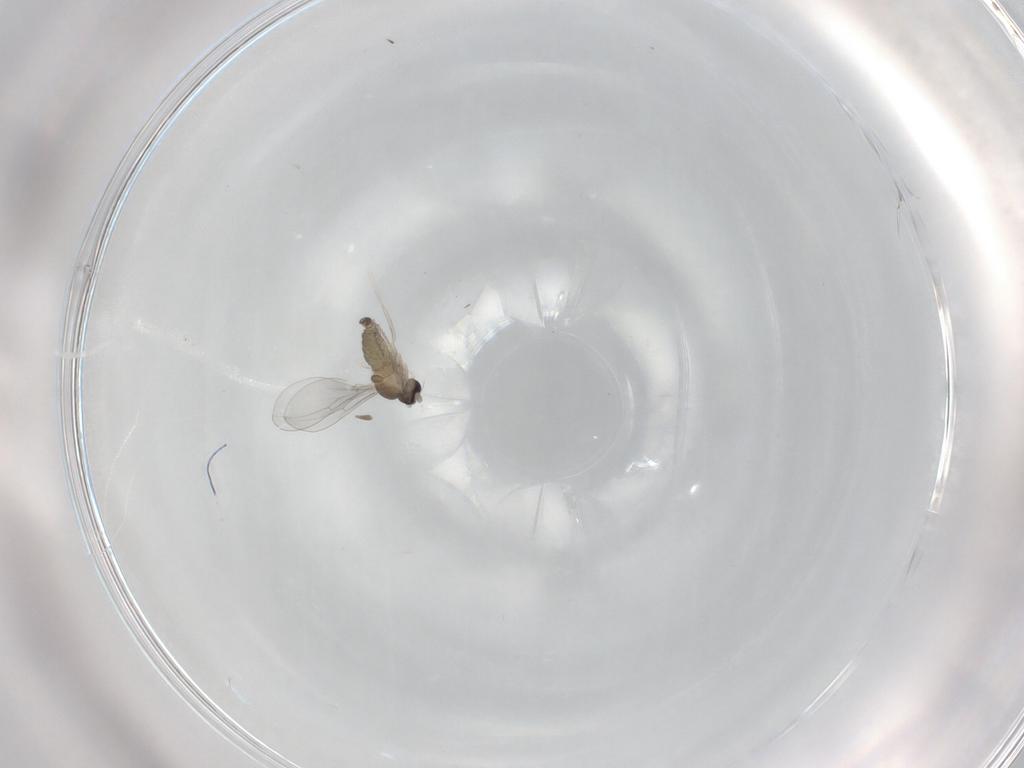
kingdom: Animalia
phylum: Arthropoda
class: Insecta
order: Diptera
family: Cecidomyiidae
